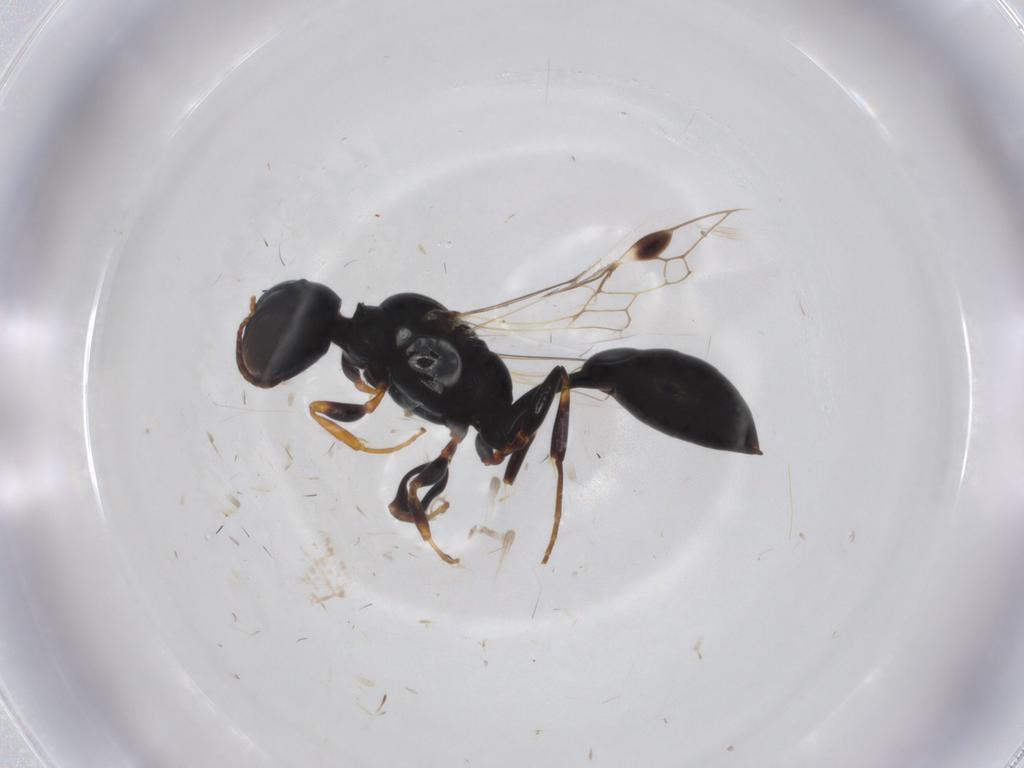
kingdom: Animalia
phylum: Arthropoda
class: Insecta
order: Hymenoptera
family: Crabronidae
